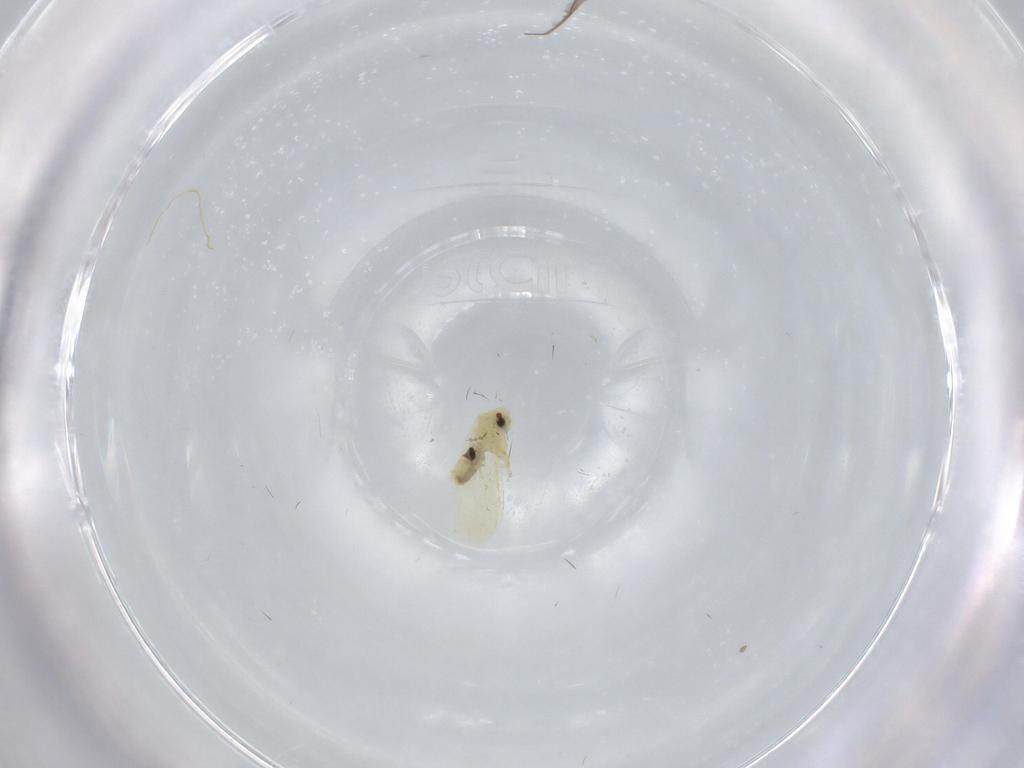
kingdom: Animalia
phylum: Arthropoda
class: Insecta
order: Hemiptera
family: Aleyrodidae
